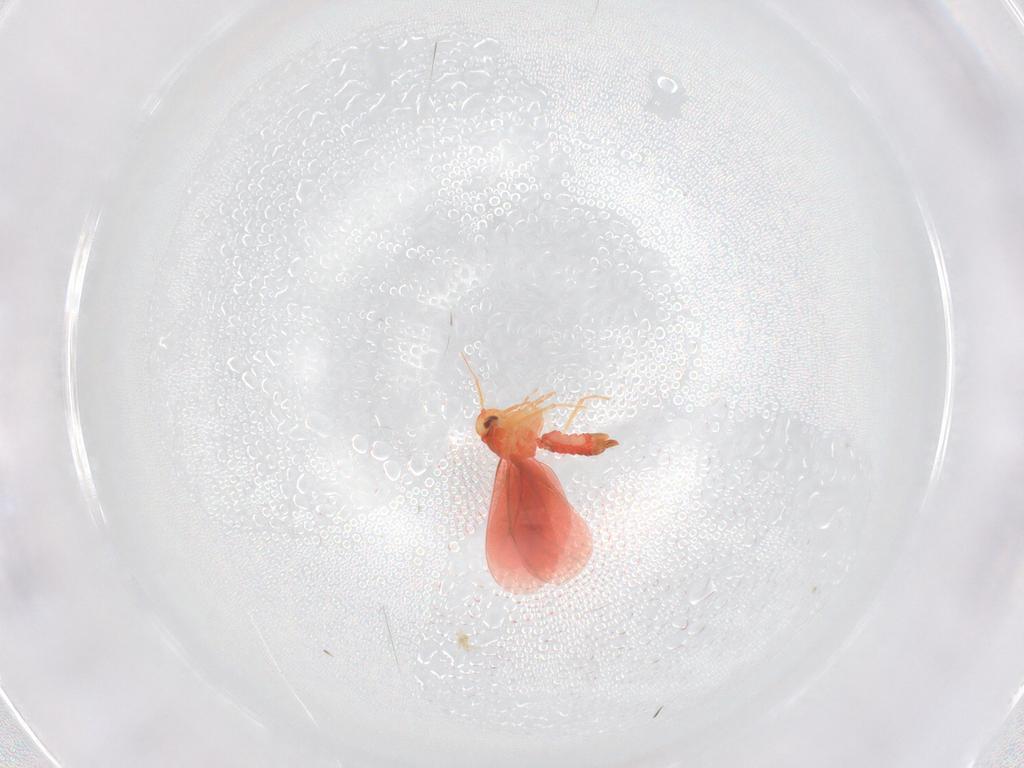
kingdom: Animalia
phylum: Arthropoda
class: Insecta
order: Hemiptera
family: Aleyrodidae
